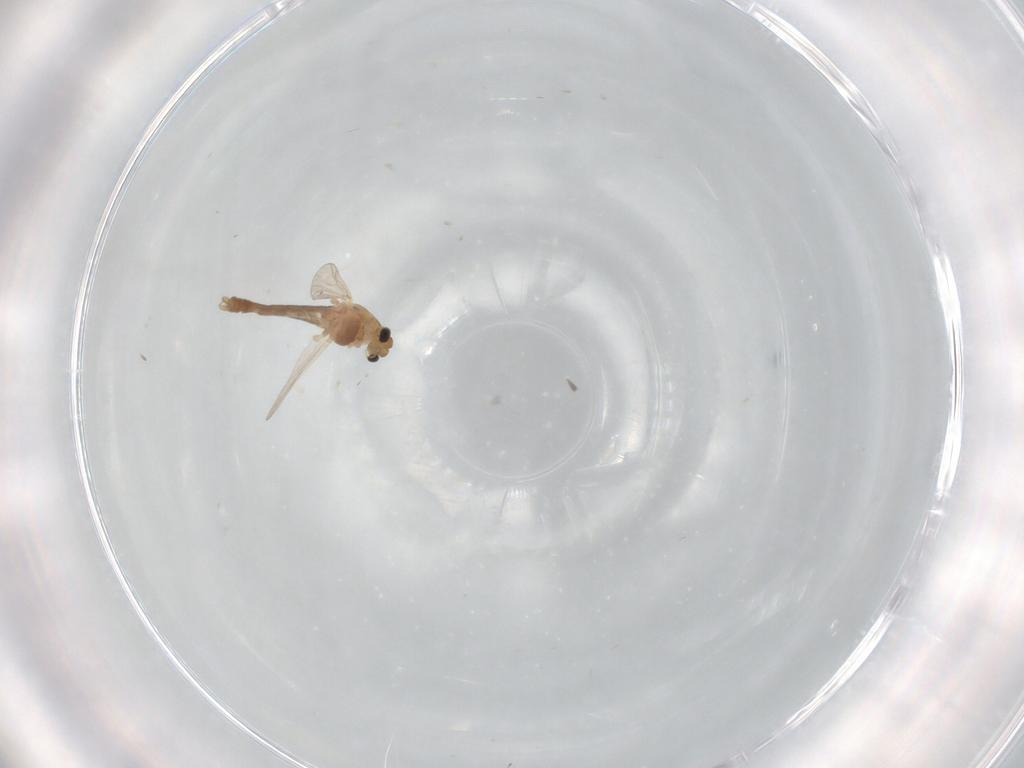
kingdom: Animalia
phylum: Arthropoda
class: Insecta
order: Diptera
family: Chironomidae
